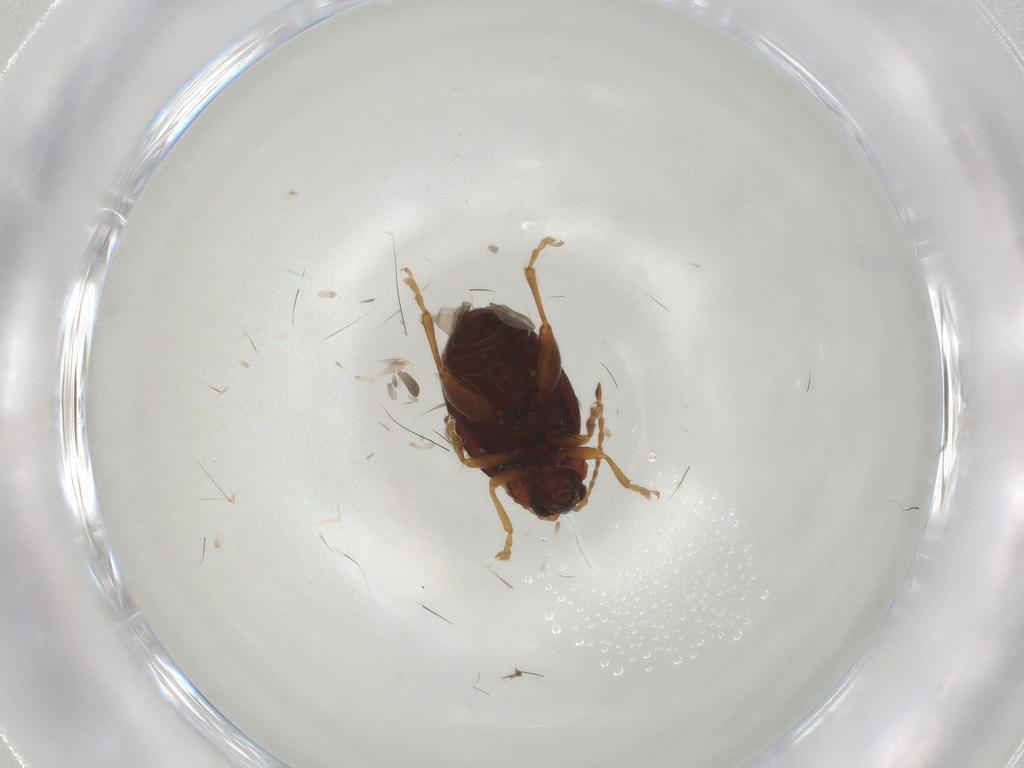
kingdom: Animalia
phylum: Arthropoda
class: Insecta
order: Coleoptera
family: Chrysomelidae
